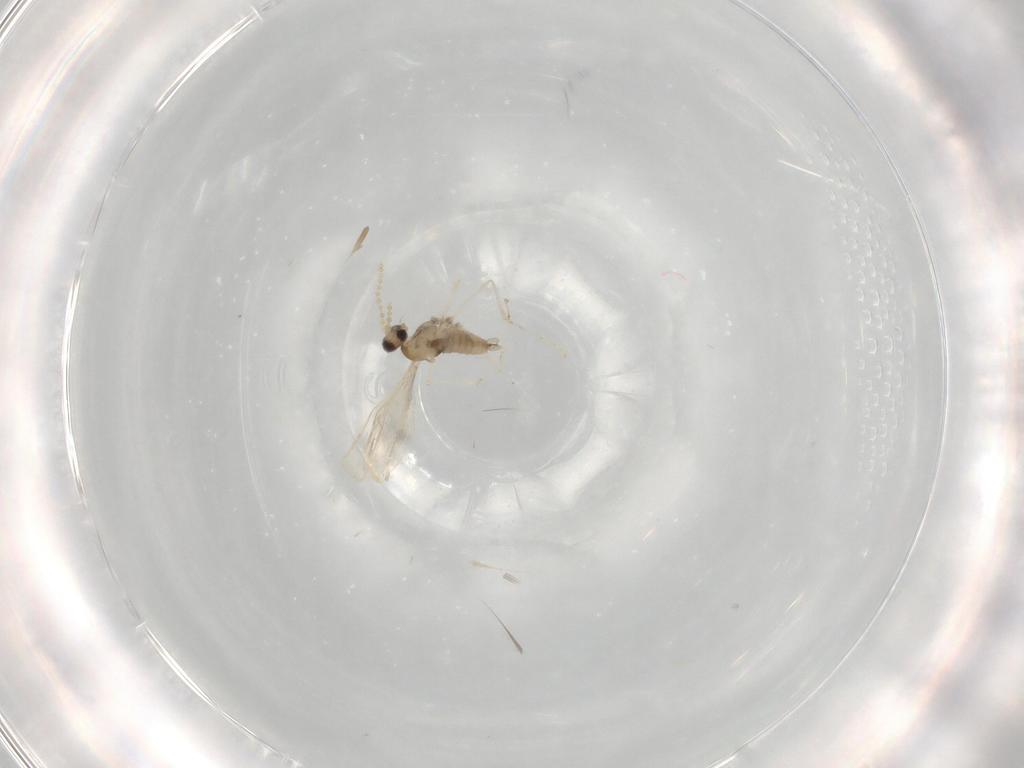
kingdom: Animalia
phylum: Arthropoda
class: Insecta
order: Diptera
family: Cecidomyiidae
